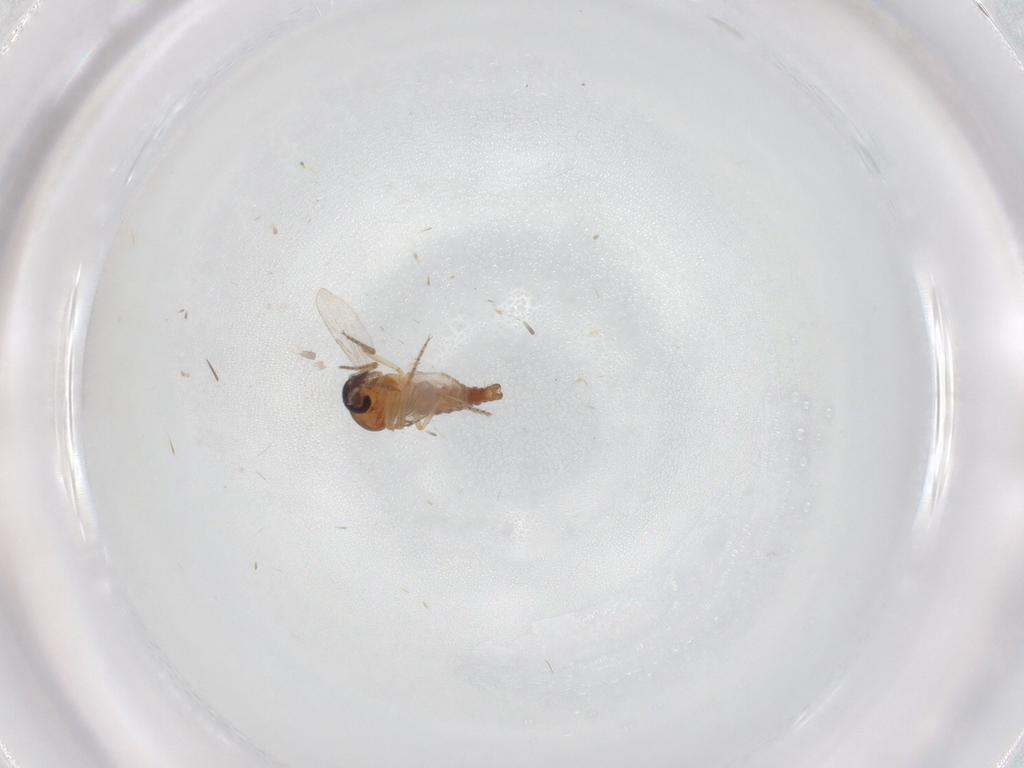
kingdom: Animalia
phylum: Arthropoda
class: Insecta
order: Diptera
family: Ceratopogonidae
